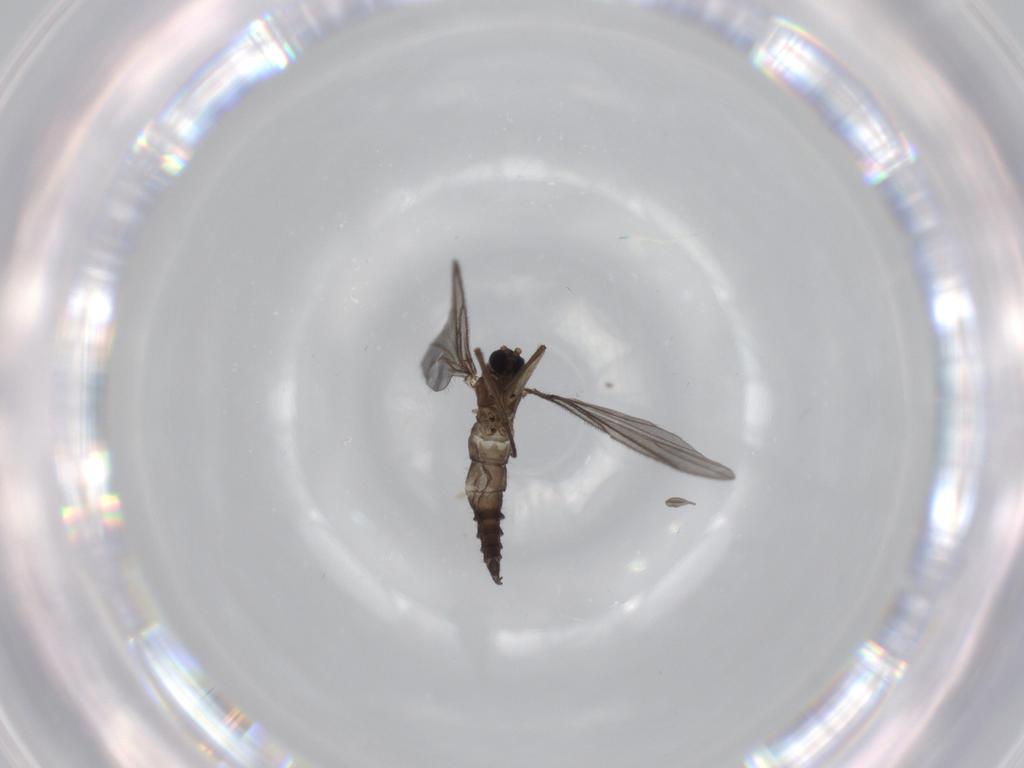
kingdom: Animalia
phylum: Arthropoda
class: Insecta
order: Diptera
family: Sciaridae
